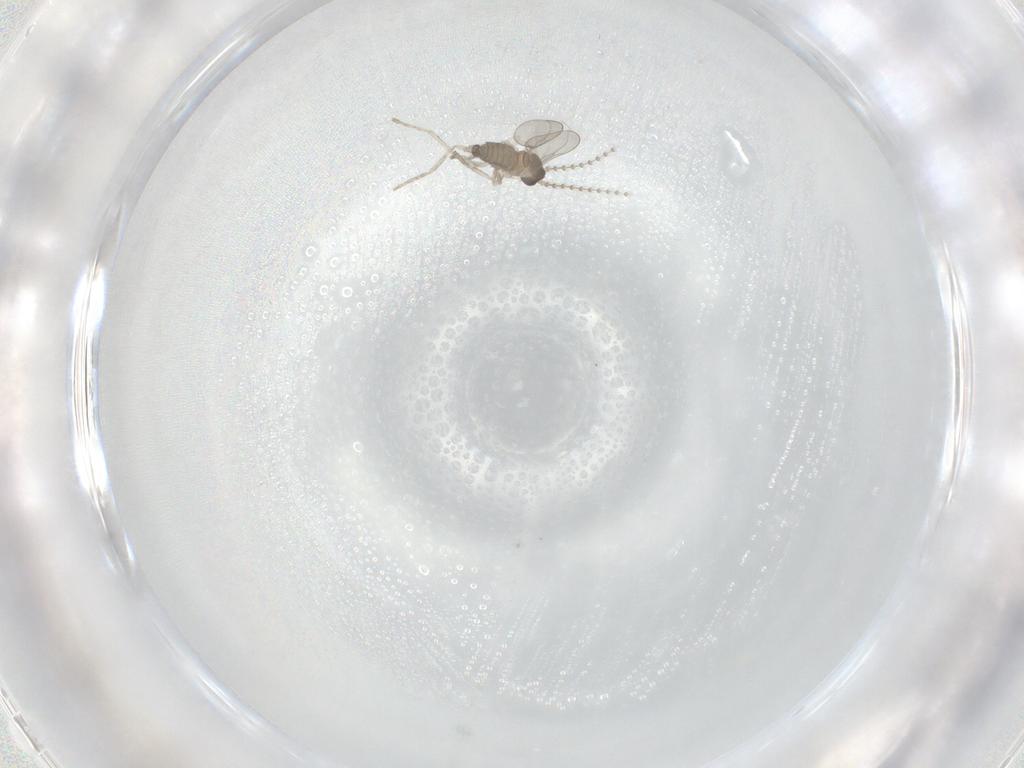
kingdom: Animalia
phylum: Arthropoda
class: Insecta
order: Diptera
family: Cecidomyiidae
